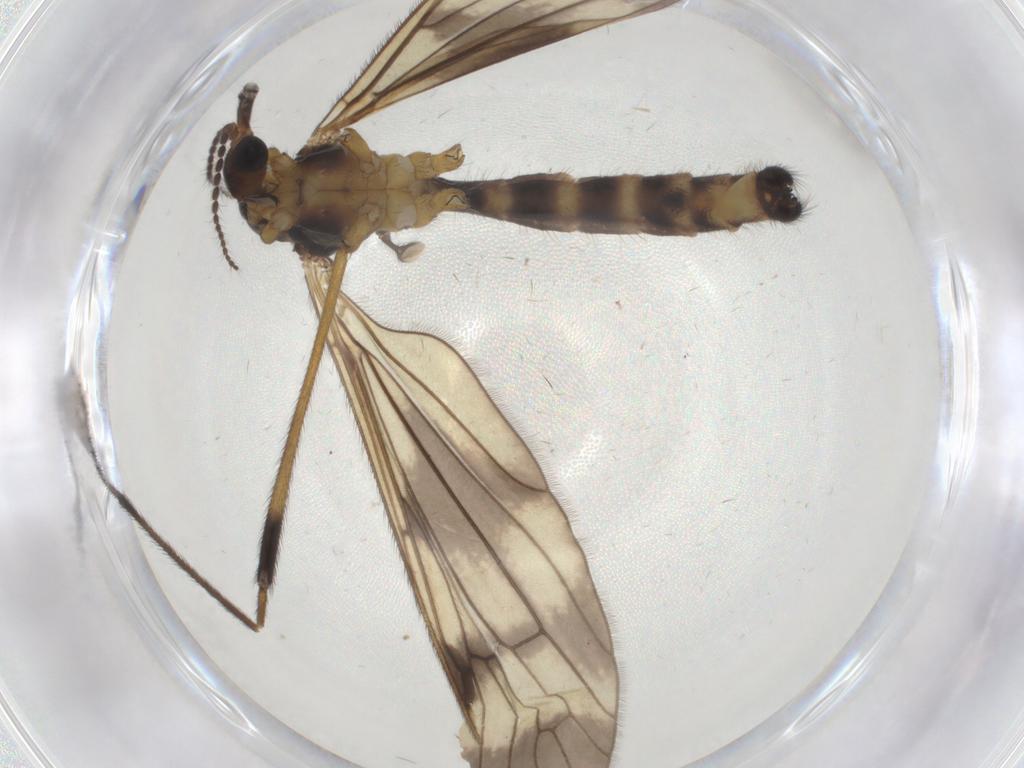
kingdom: Animalia
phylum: Arthropoda
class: Insecta
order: Diptera
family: Limoniidae
